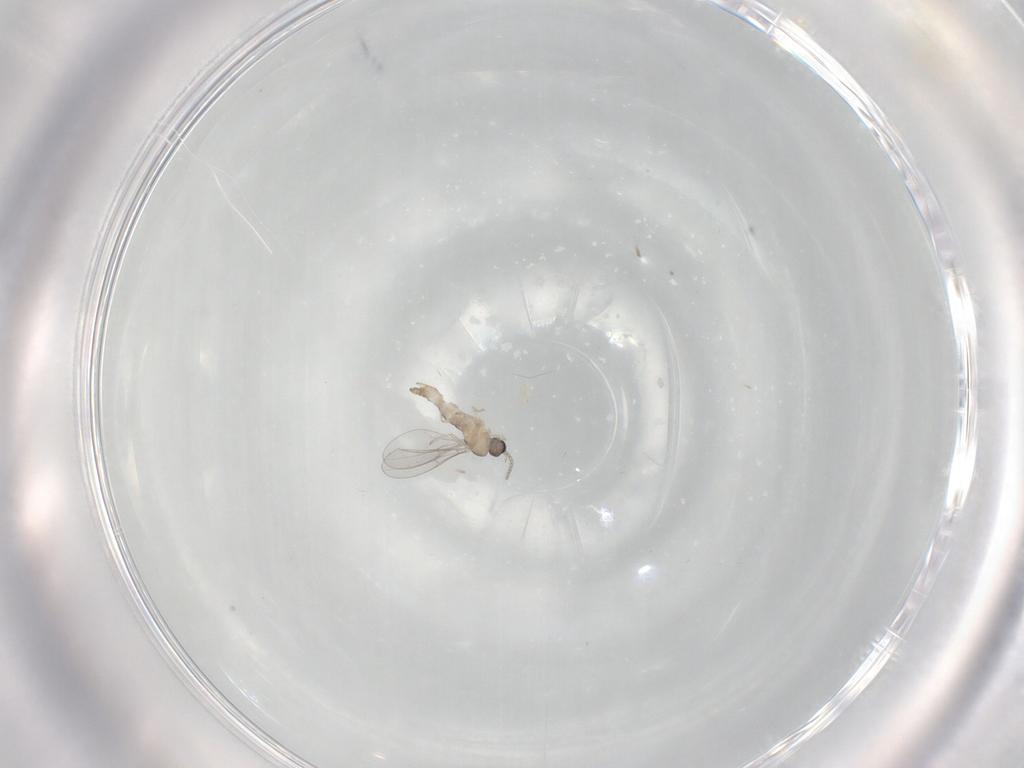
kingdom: Animalia
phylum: Arthropoda
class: Insecta
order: Diptera
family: Cecidomyiidae
